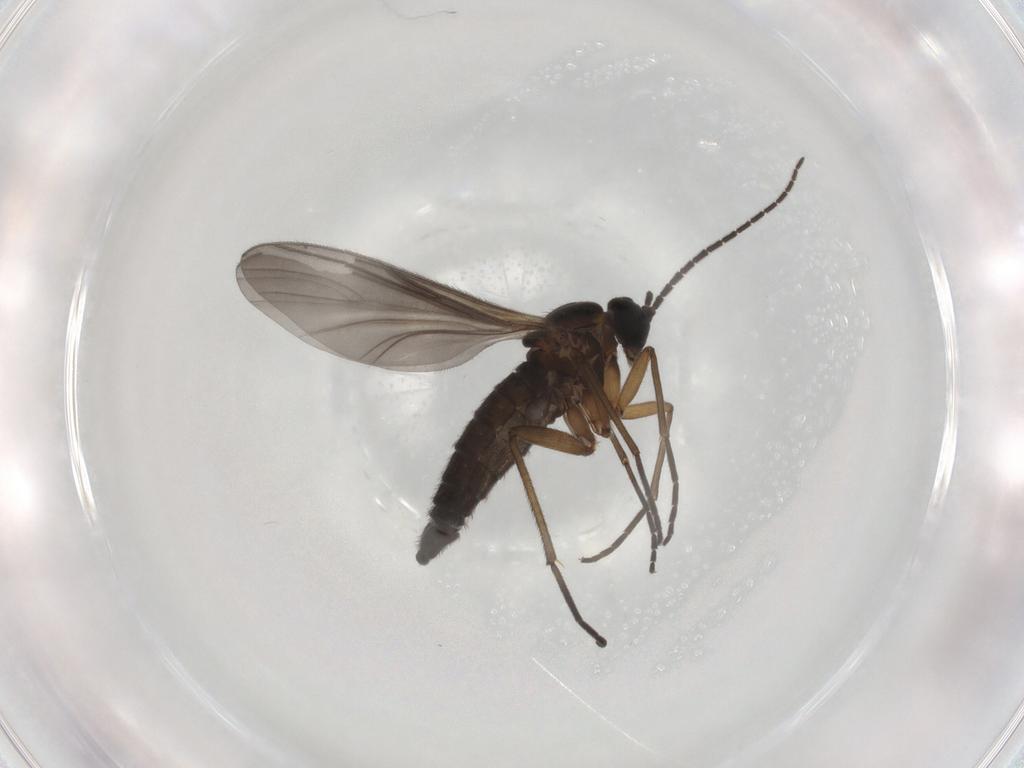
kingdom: Animalia
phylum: Arthropoda
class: Insecta
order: Diptera
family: Sciaridae
